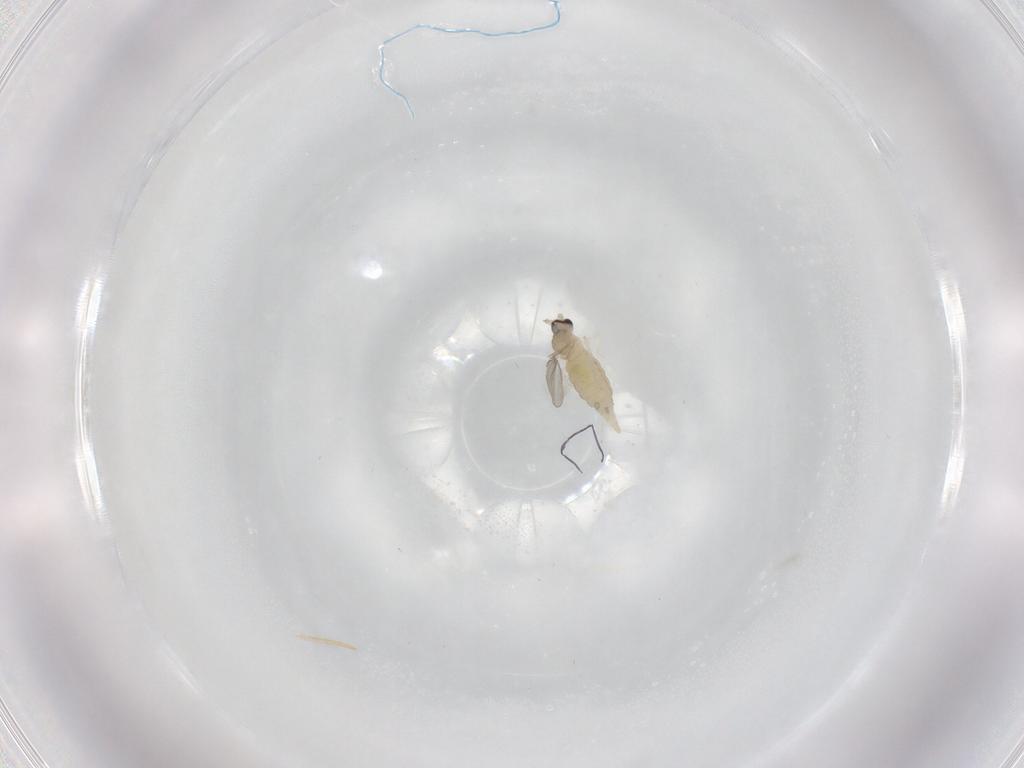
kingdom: Animalia
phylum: Arthropoda
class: Insecta
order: Diptera
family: Cecidomyiidae
